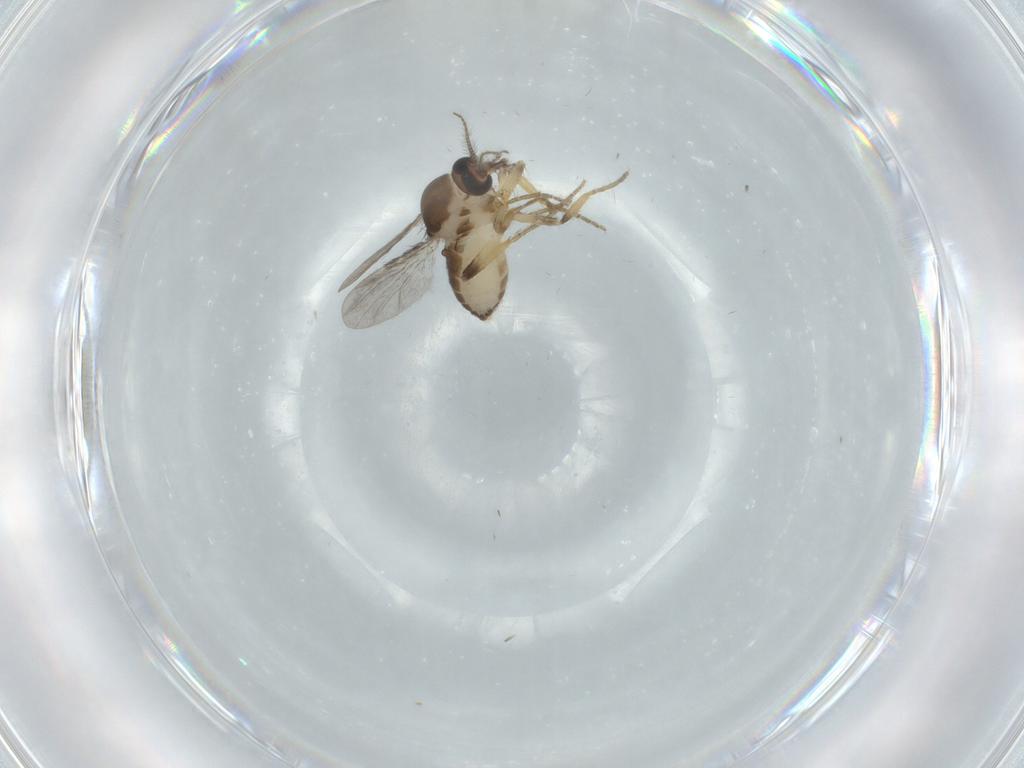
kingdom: Animalia
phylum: Arthropoda
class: Insecta
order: Diptera
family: Ceratopogonidae
